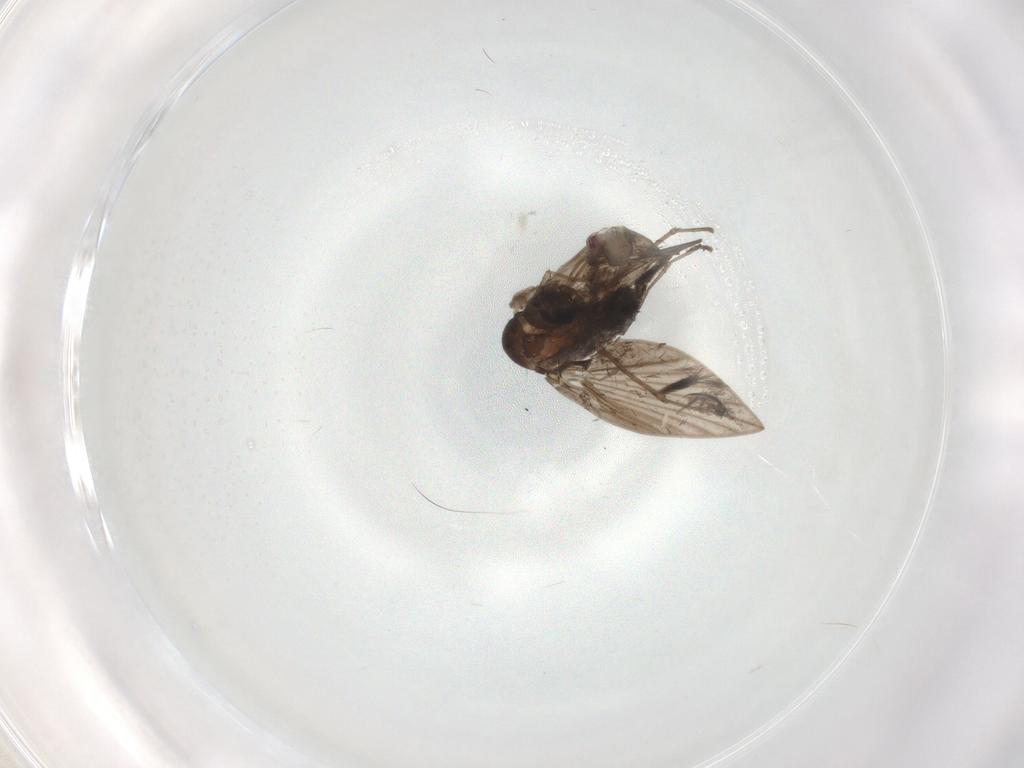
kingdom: Animalia
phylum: Arthropoda
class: Insecta
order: Diptera
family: Psychodidae
